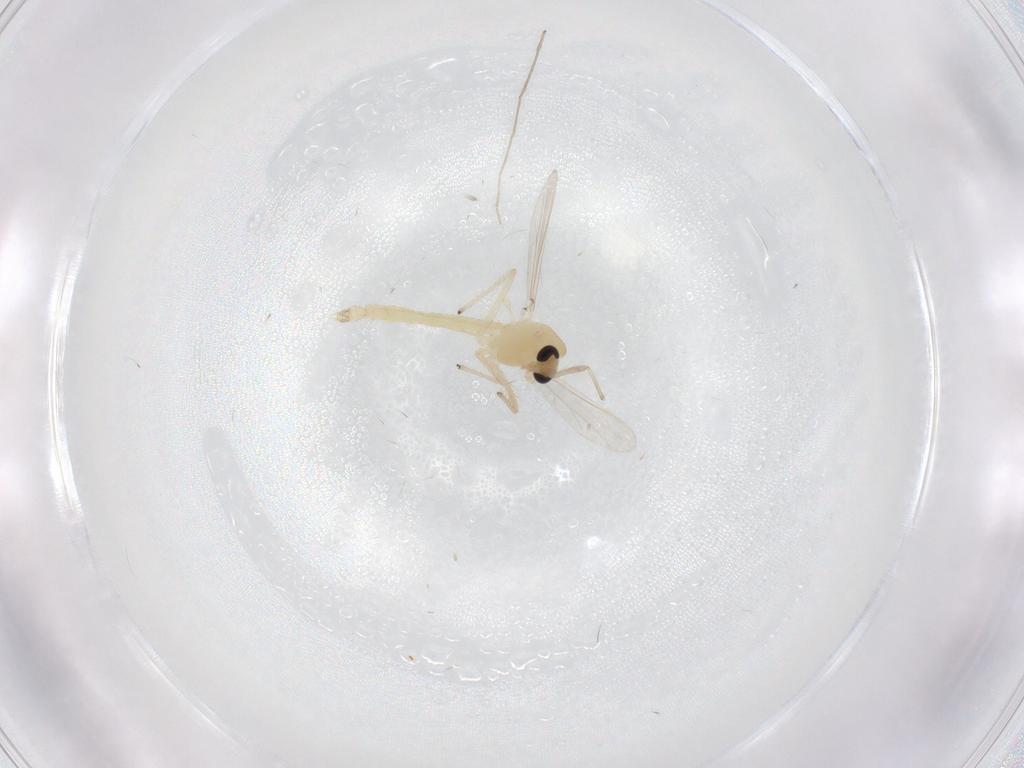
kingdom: Animalia
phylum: Arthropoda
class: Insecta
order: Diptera
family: Chironomidae
